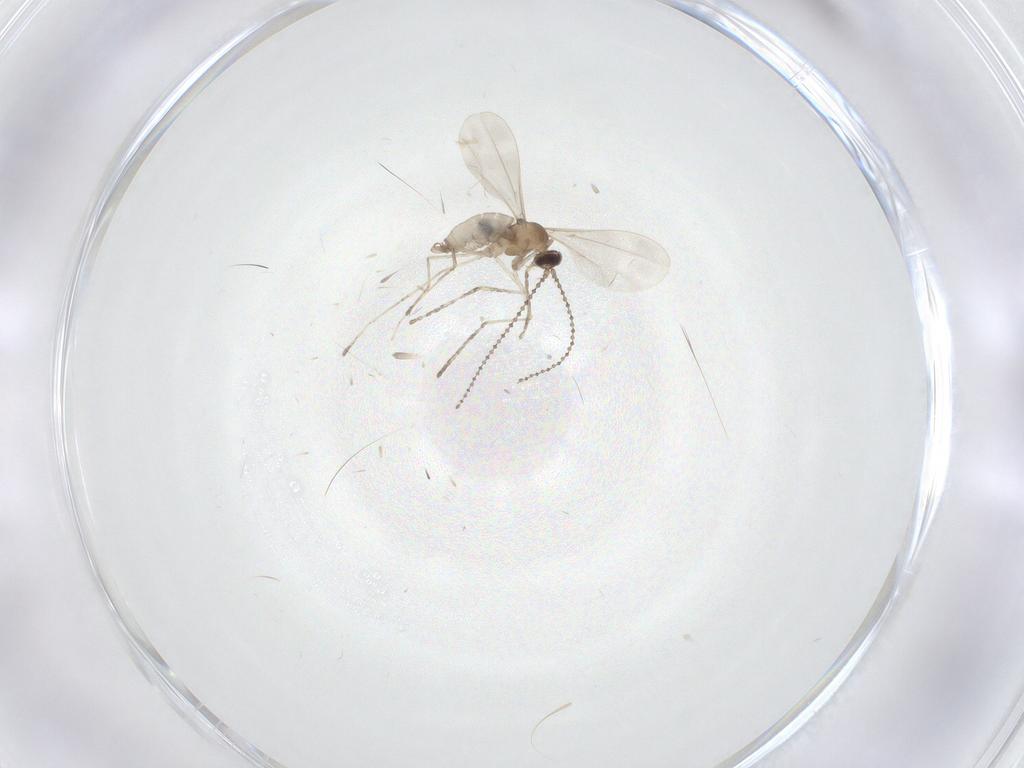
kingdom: Animalia
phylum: Arthropoda
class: Insecta
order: Diptera
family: Cecidomyiidae
